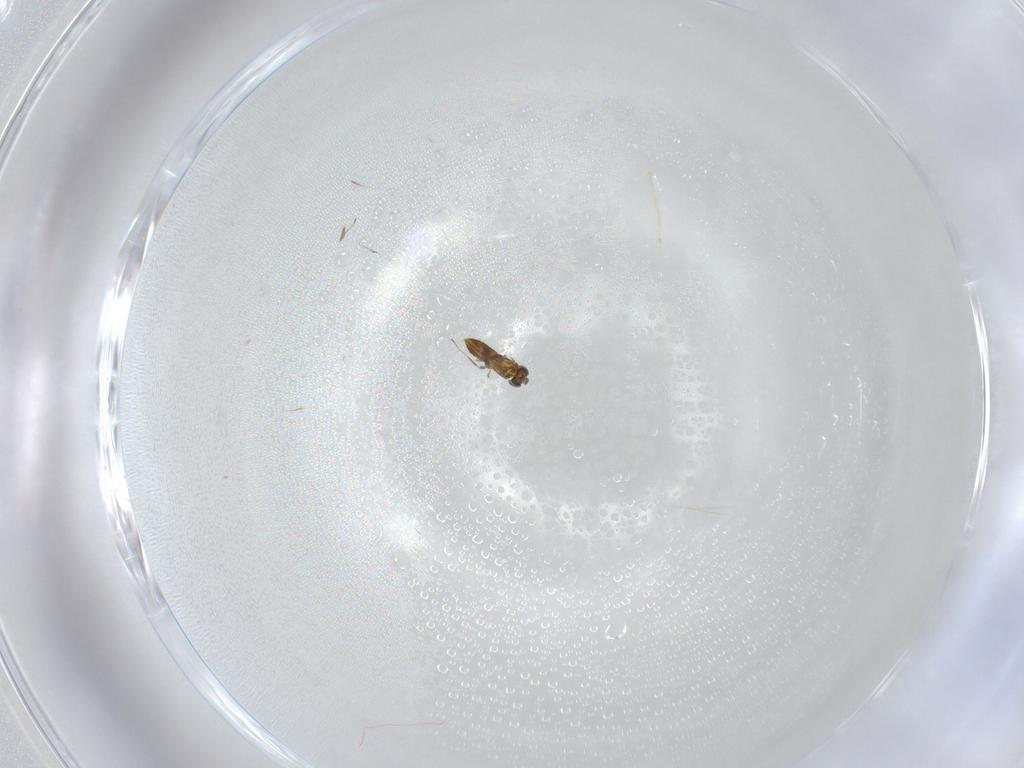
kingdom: Animalia
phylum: Arthropoda
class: Insecta
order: Hymenoptera
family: Trichogrammatidae
